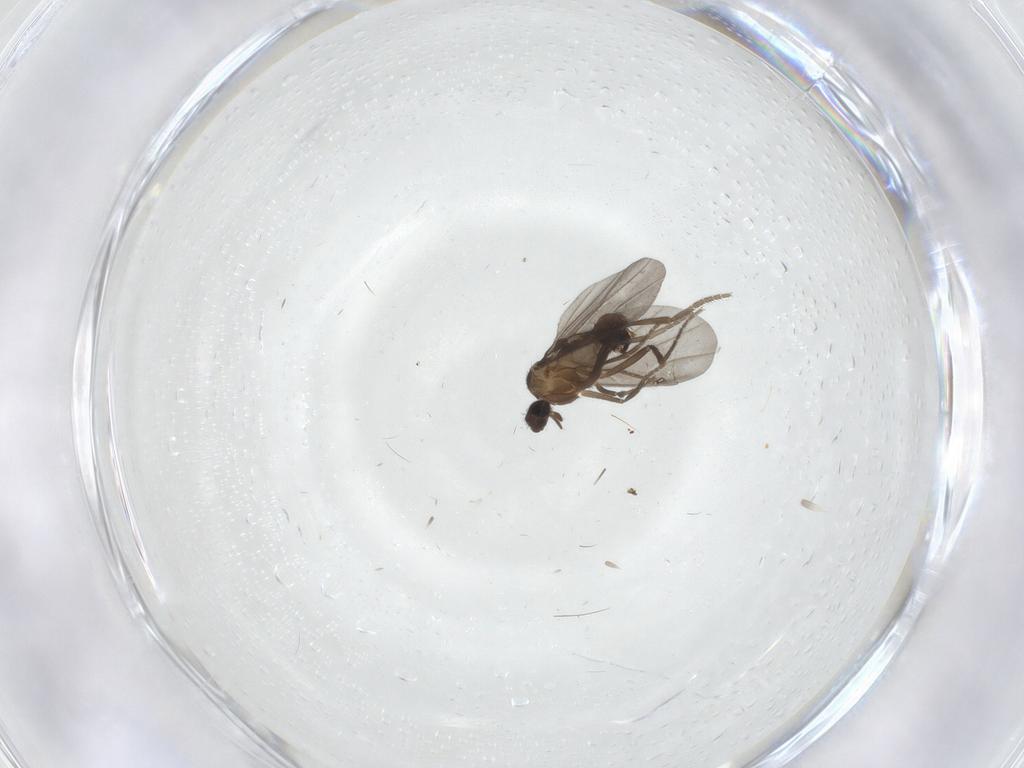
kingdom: Animalia
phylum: Arthropoda
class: Insecta
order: Diptera
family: Phoridae
